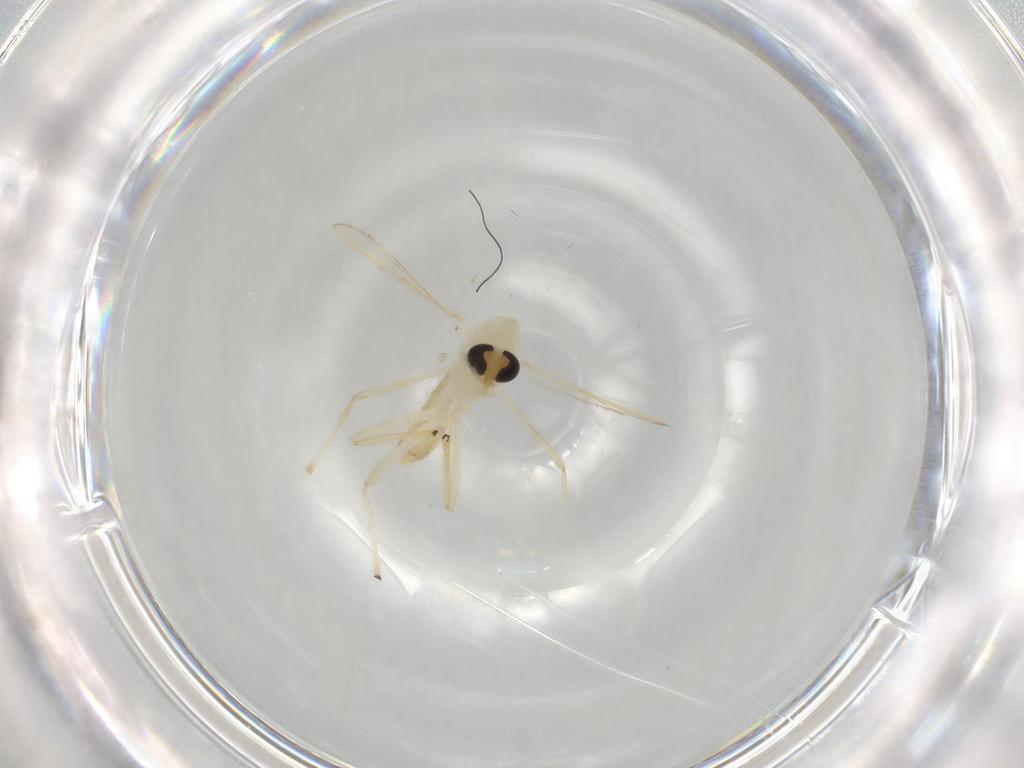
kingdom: Animalia
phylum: Arthropoda
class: Insecta
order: Diptera
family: Chironomidae
